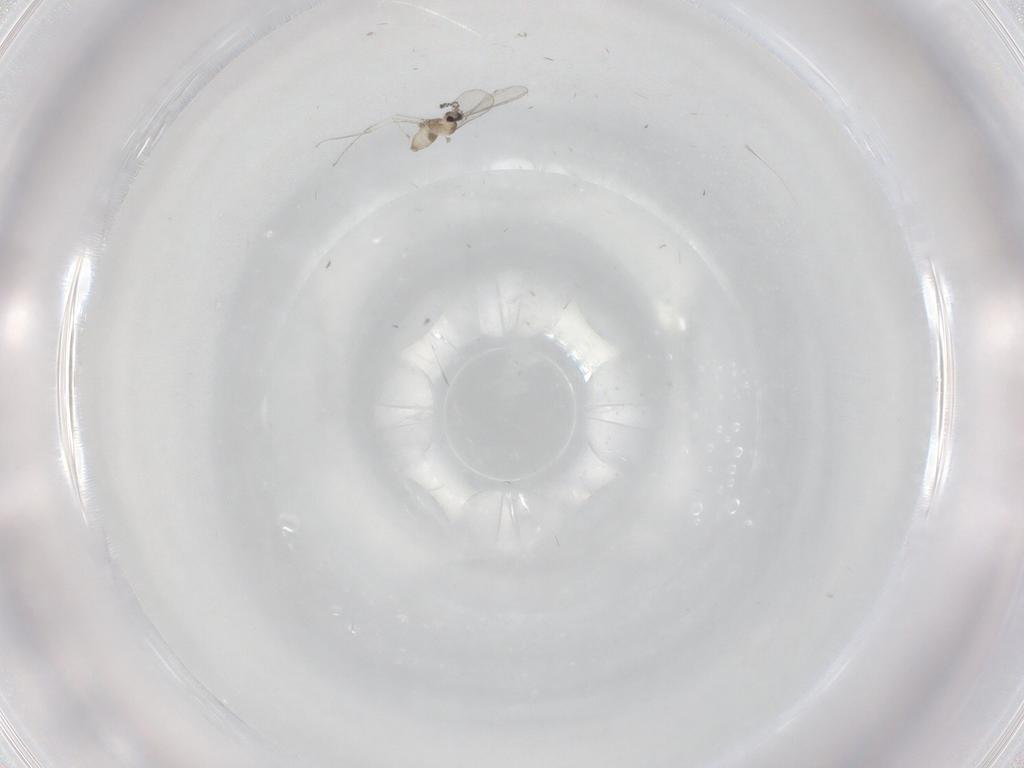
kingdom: Animalia
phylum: Arthropoda
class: Insecta
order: Diptera
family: Cecidomyiidae
